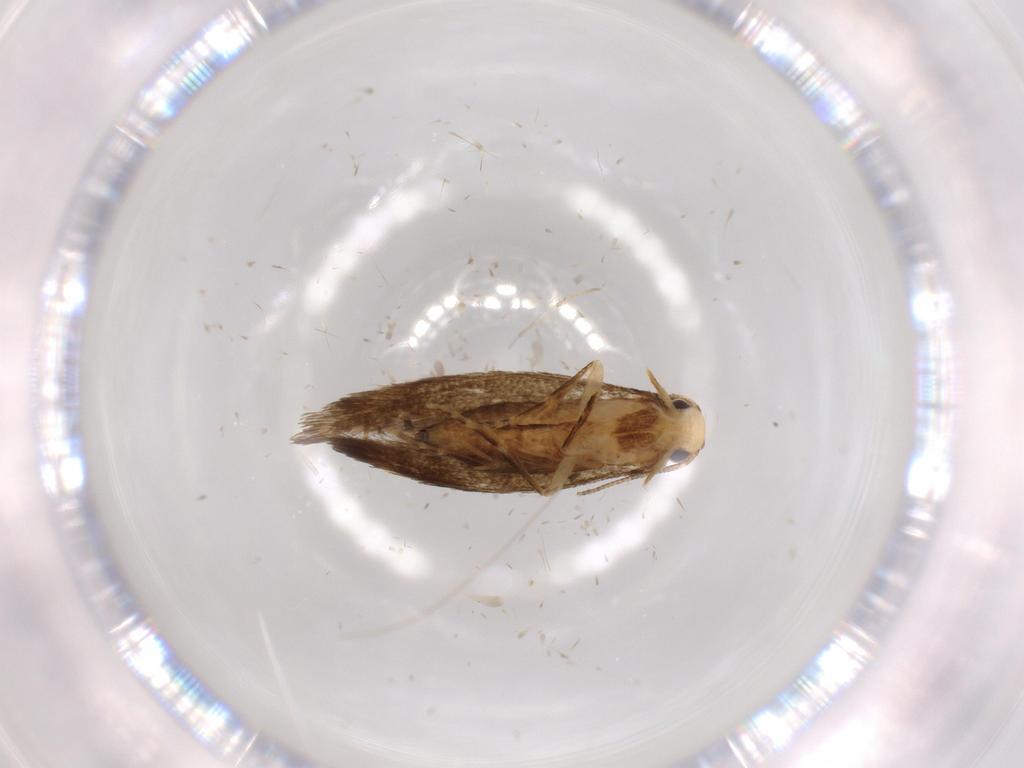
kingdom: Animalia
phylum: Arthropoda
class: Insecta
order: Lepidoptera
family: Tineidae
